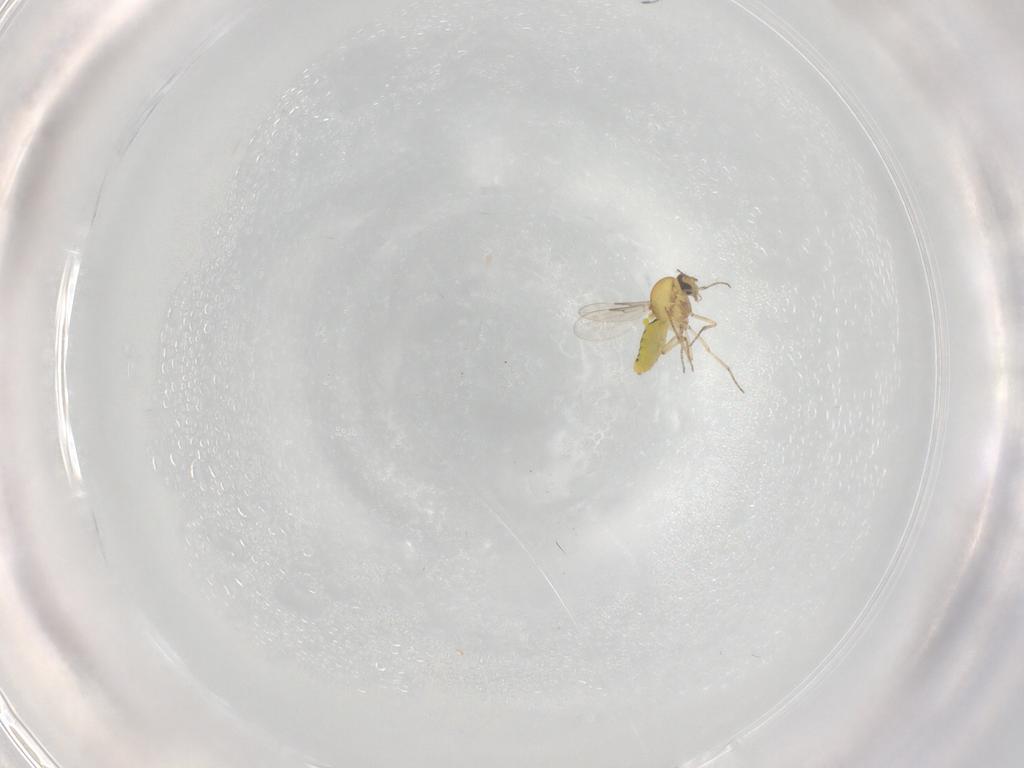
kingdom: Animalia
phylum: Arthropoda
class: Insecta
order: Diptera
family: Ceratopogonidae
